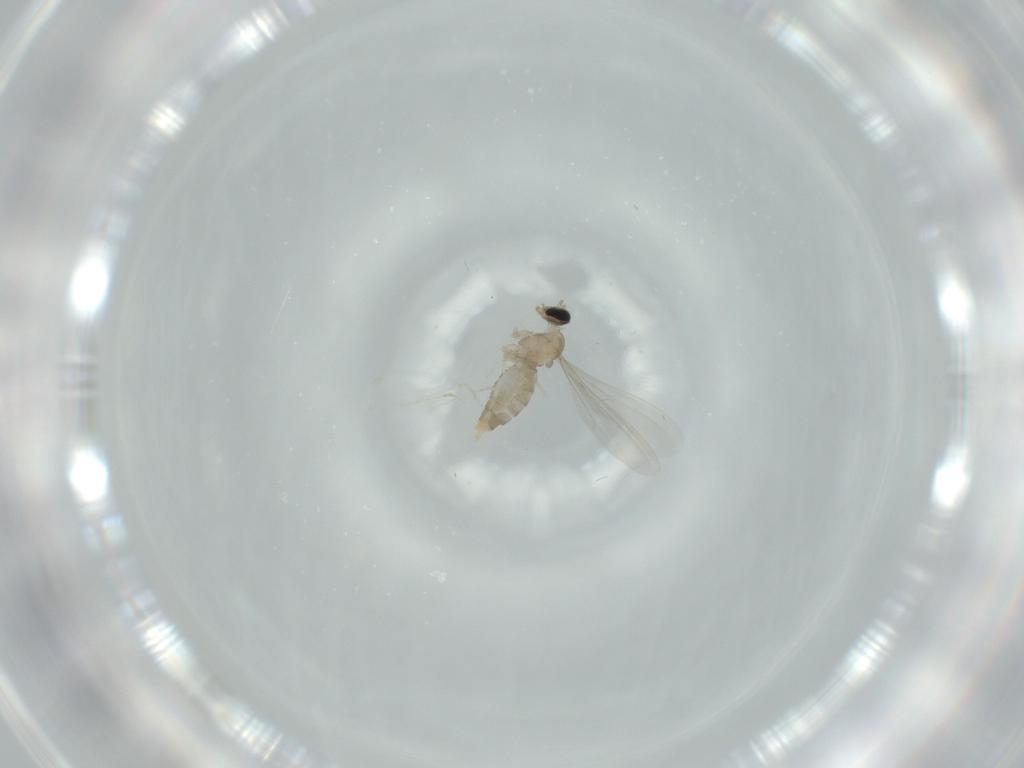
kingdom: Animalia
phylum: Arthropoda
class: Insecta
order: Diptera
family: Cecidomyiidae
